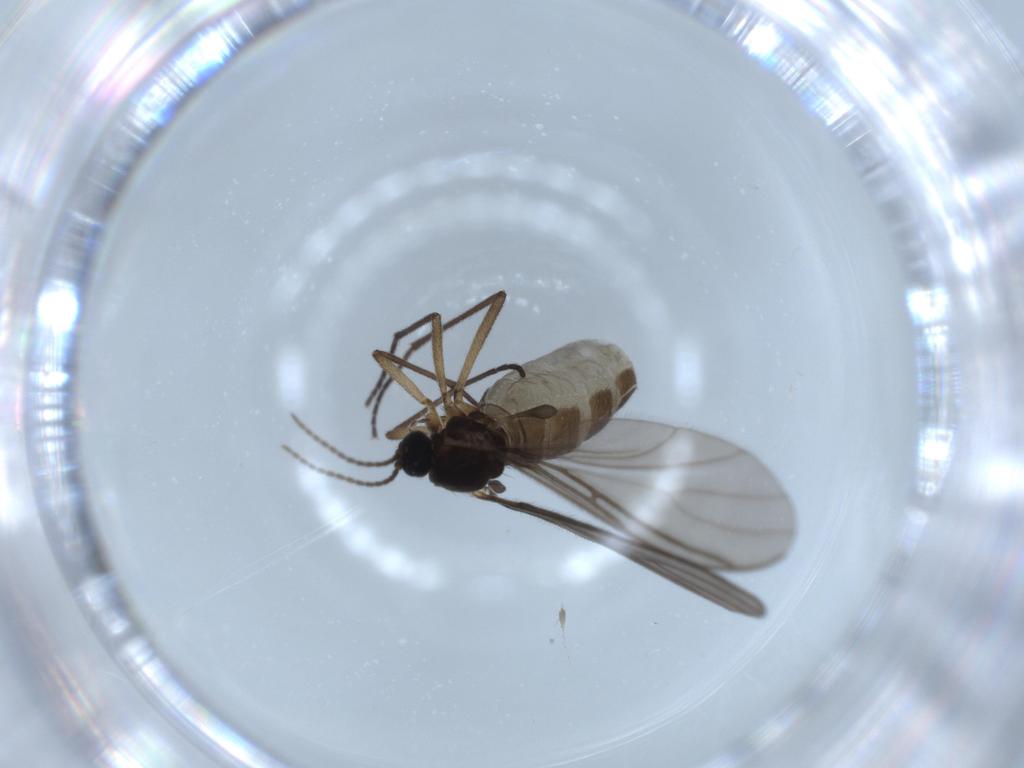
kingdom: Animalia
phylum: Arthropoda
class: Insecta
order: Diptera
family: Sciaridae
